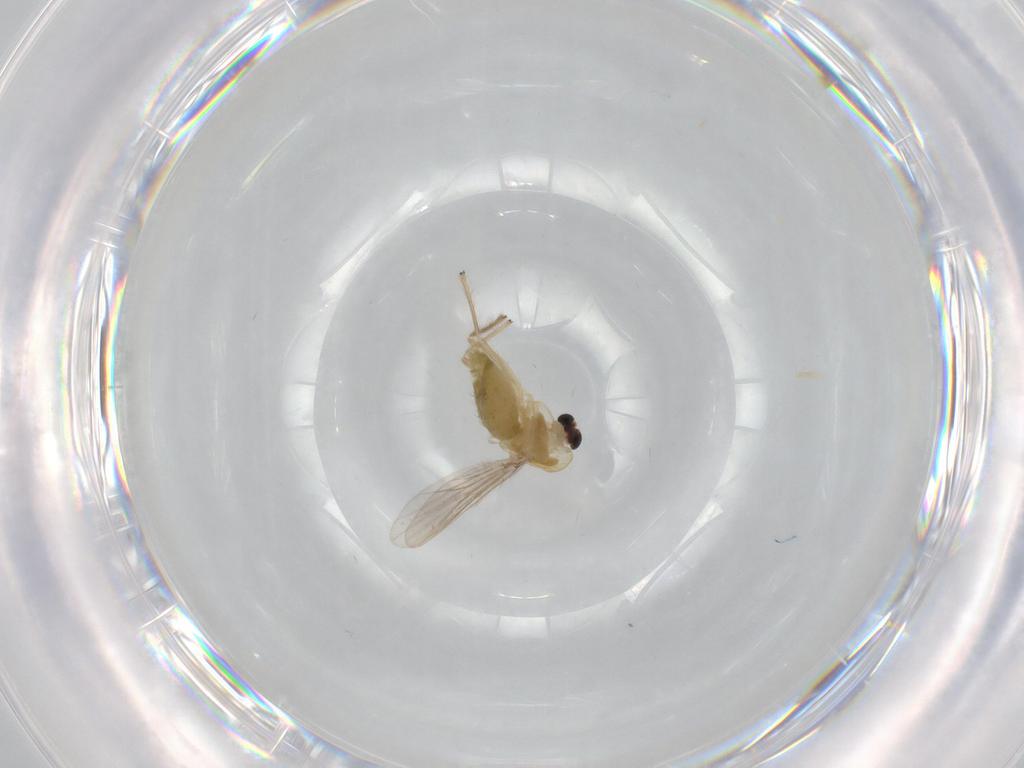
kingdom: Animalia
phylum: Arthropoda
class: Insecta
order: Diptera
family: Chironomidae
